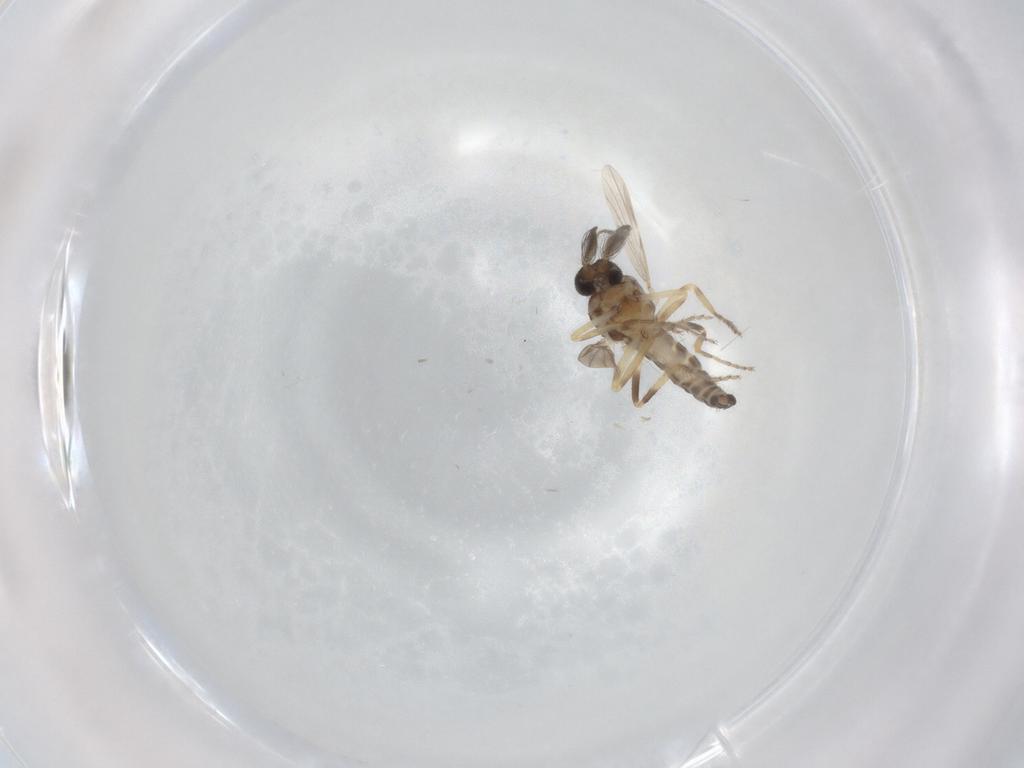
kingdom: Animalia
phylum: Arthropoda
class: Insecta
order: Diptera
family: Ceratopogonidae
